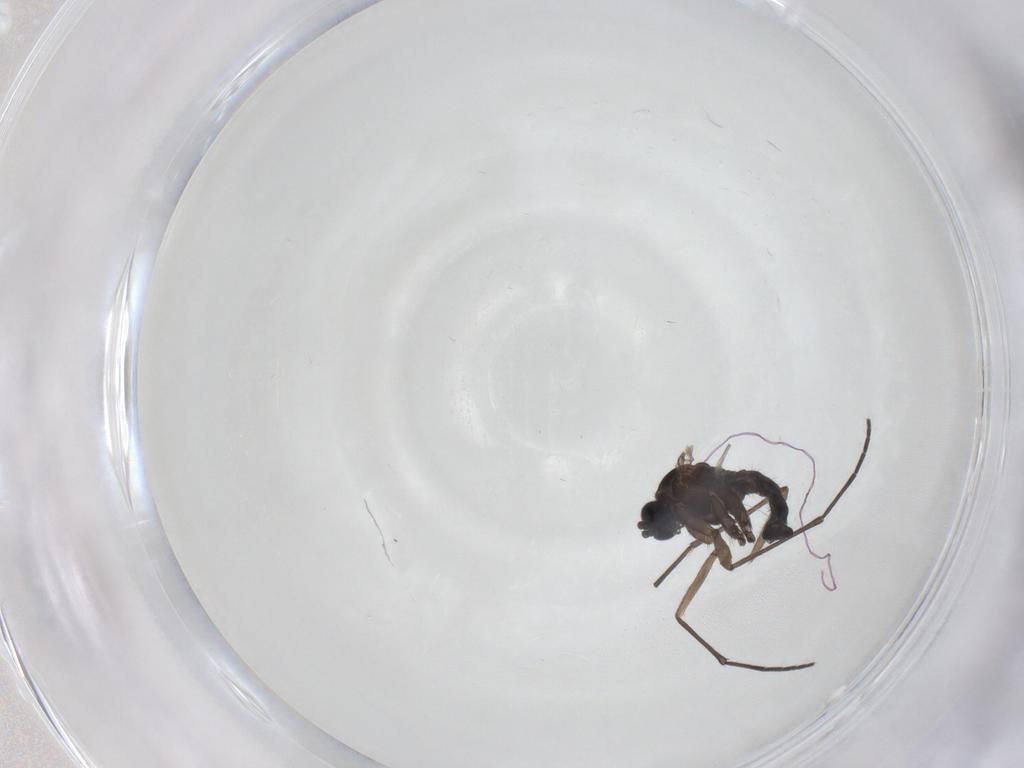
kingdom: Animalia
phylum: Arthropoda
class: Insecta
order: Diptera
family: Sciaridae
